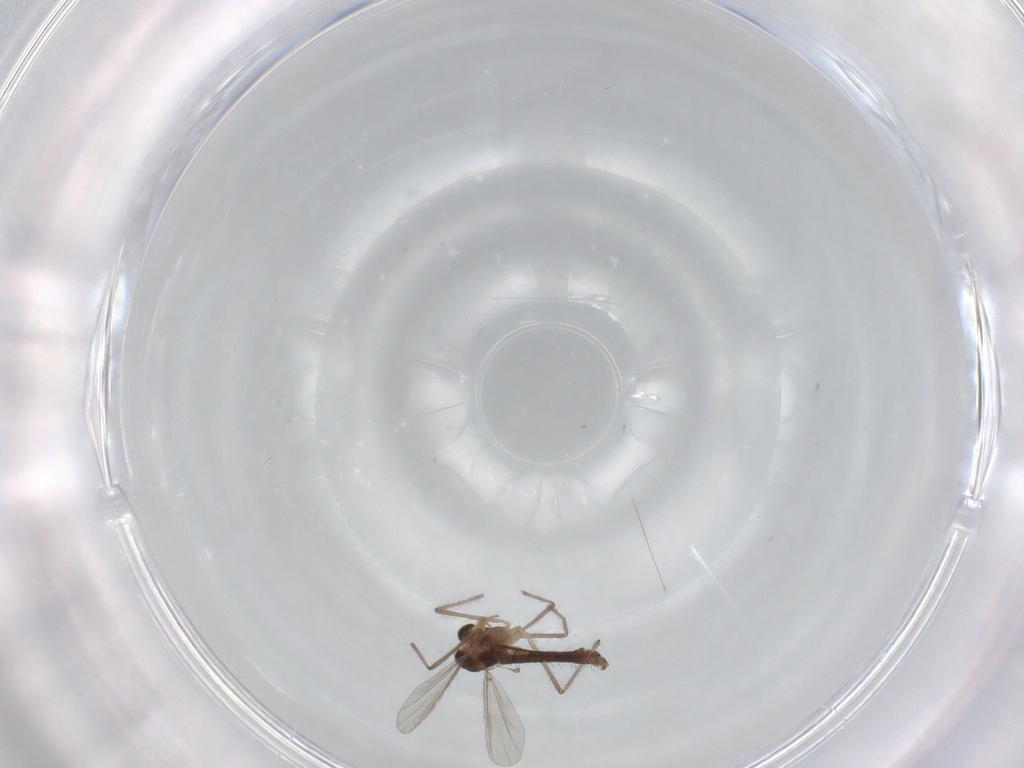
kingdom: Animalia
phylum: Arthropoda
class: Insecta
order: Diptera
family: Chironomidae
